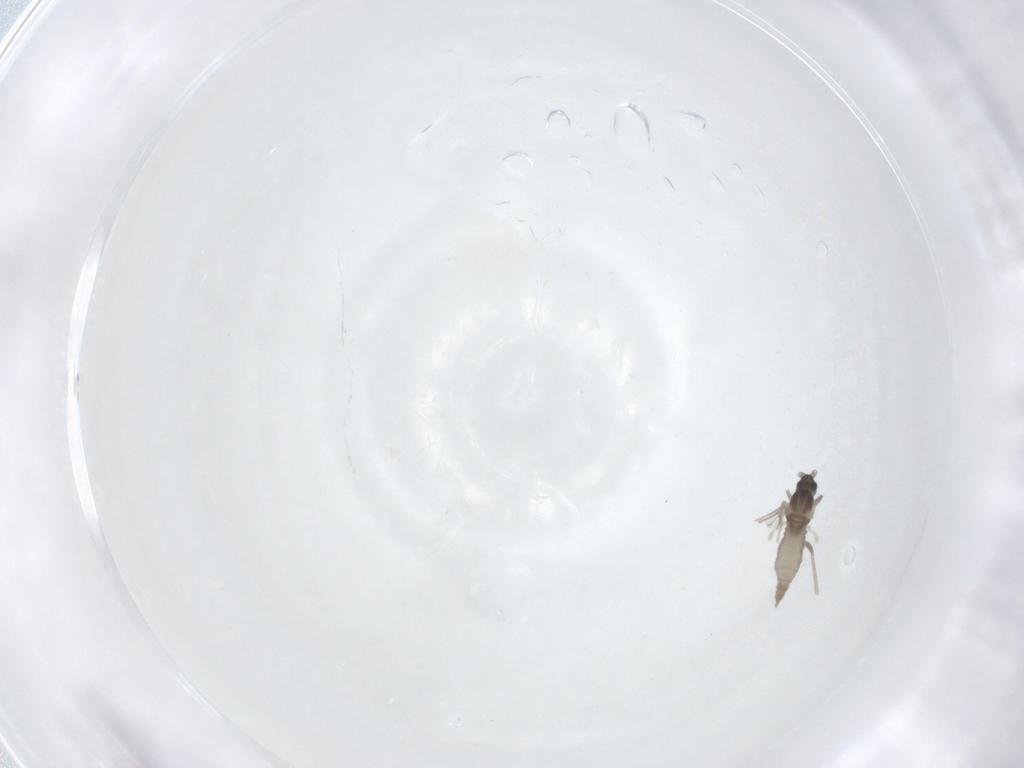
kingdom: Animalia
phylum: Arthropoda
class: Insecta
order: Diptera
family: Cecidomyiidae
